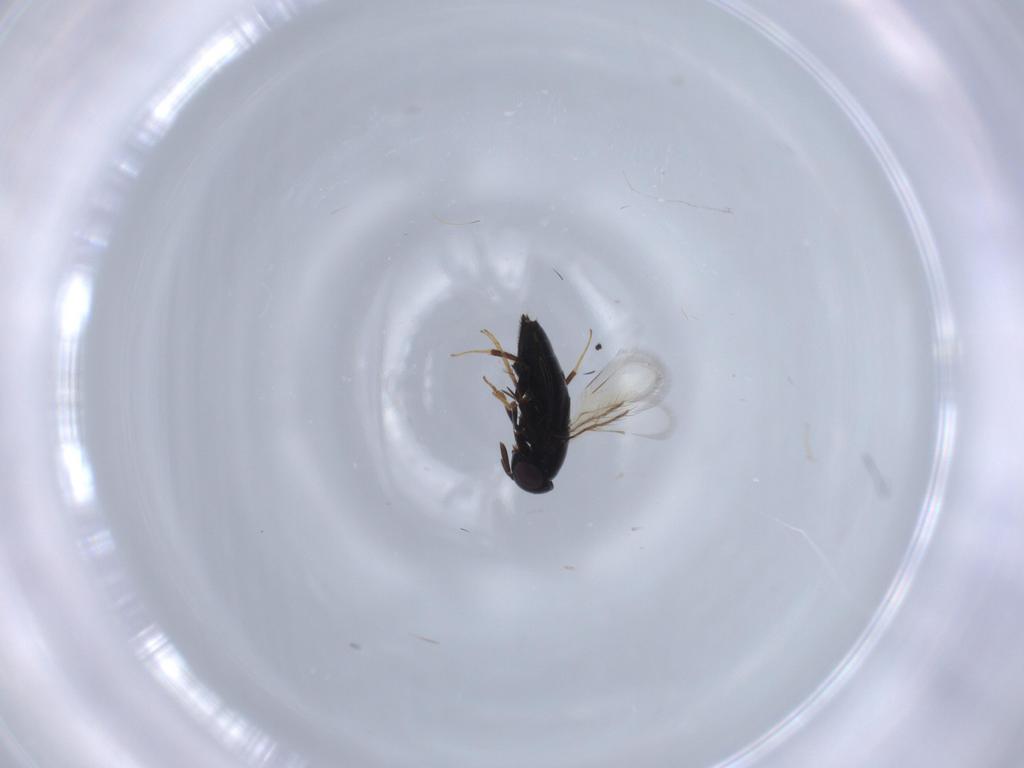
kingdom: Animalia
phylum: Arthropoda
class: Insecta
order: Hymenoptera
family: Signiphoridae
